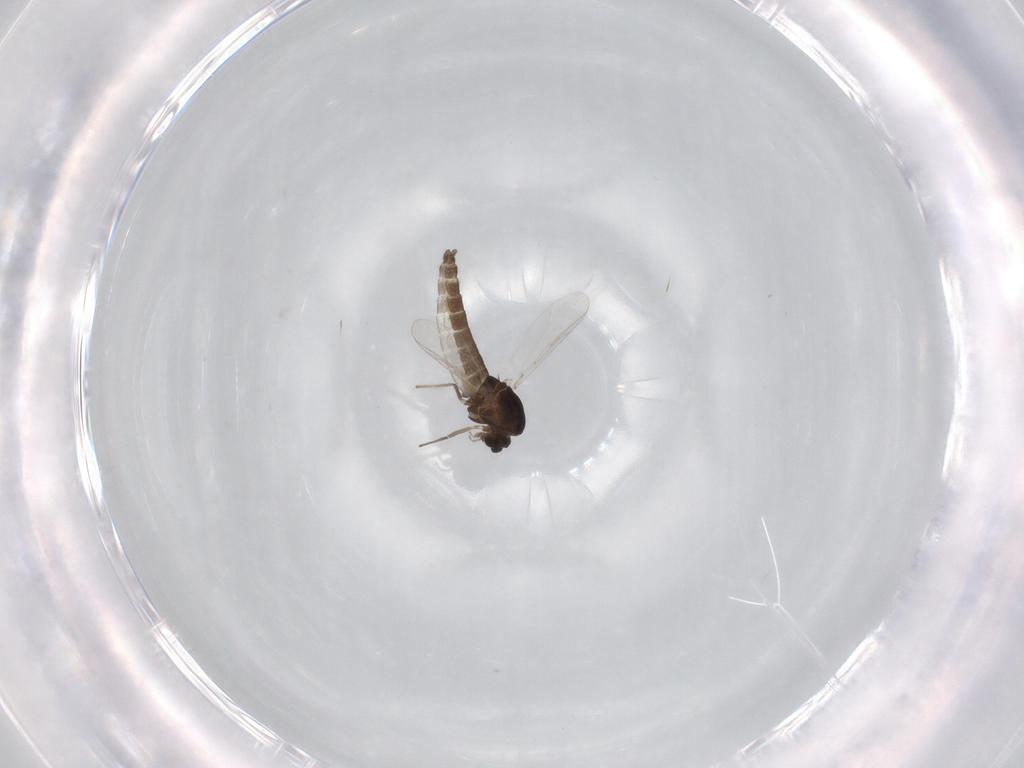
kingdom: Animalia
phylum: Arthropoda
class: Insecta
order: Diptera
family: Chironomidae
